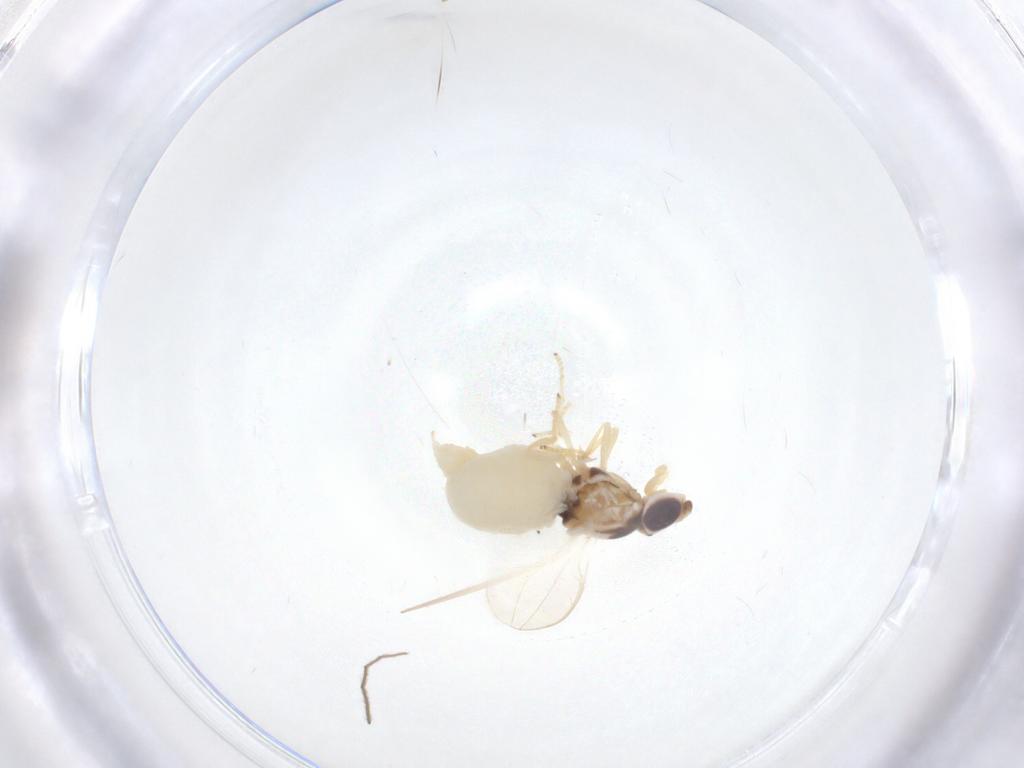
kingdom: Animalia
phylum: Arthropoda
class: Insecta
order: Diptera
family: Chloropidae
